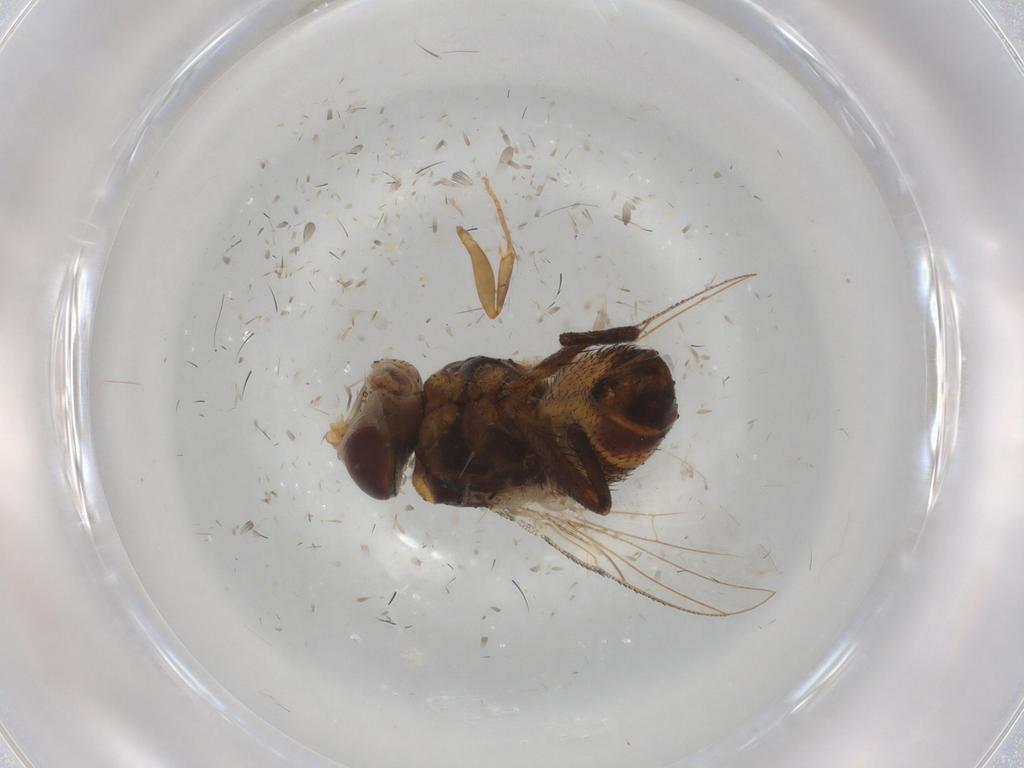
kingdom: Animalia
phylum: Arthropoda
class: Insecta
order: Diptera
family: Glossinidae
